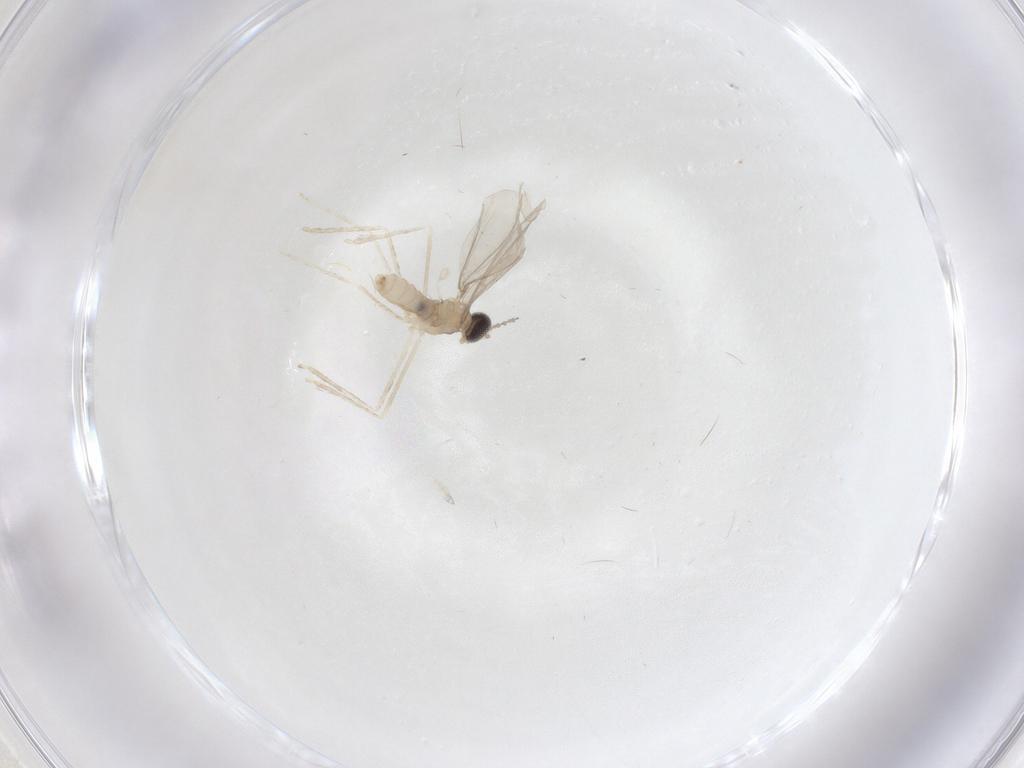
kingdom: Animalia
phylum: Arthropoda
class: Insecta
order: Diptera
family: Cecidomyiidae
